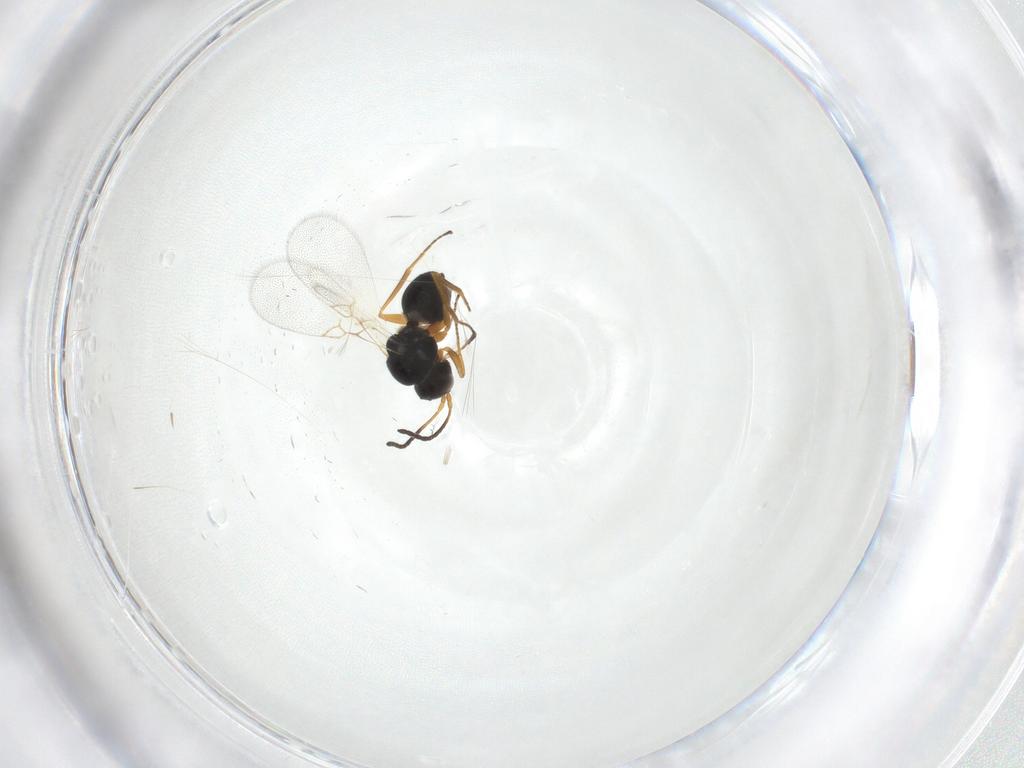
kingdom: Animalia
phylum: Arthropoda
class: Insecta
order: Hymenoptera
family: Figitidae
